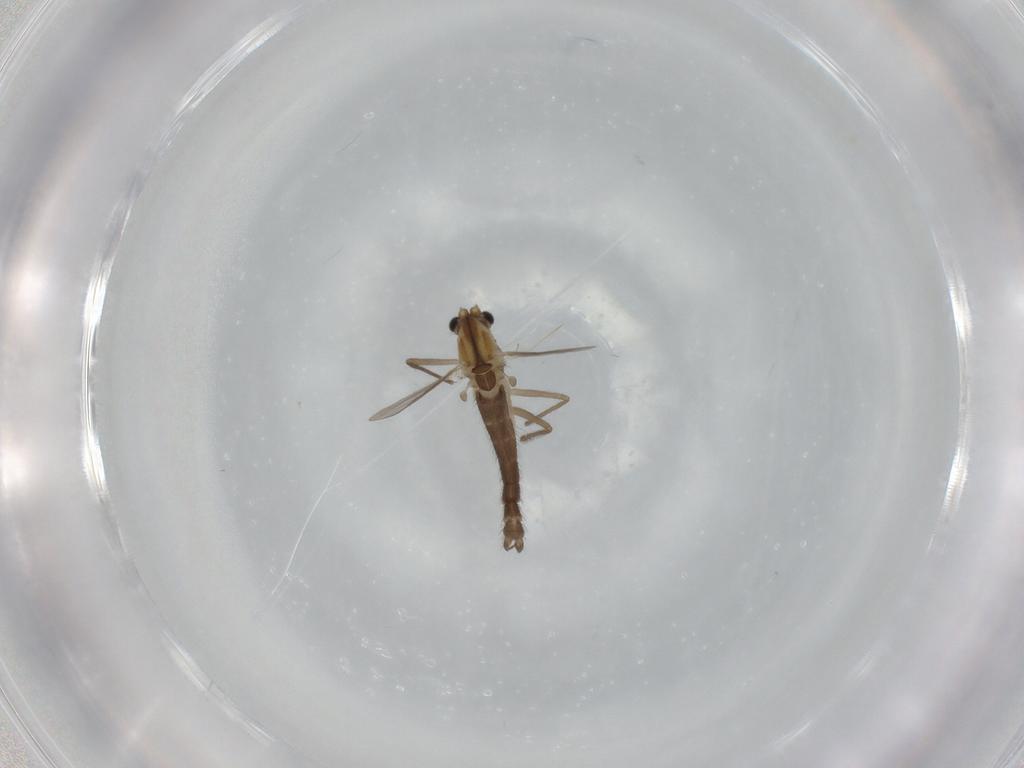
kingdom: Animalia
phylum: Arthropoda
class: Insecta
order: Diptera
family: Chironomidae
